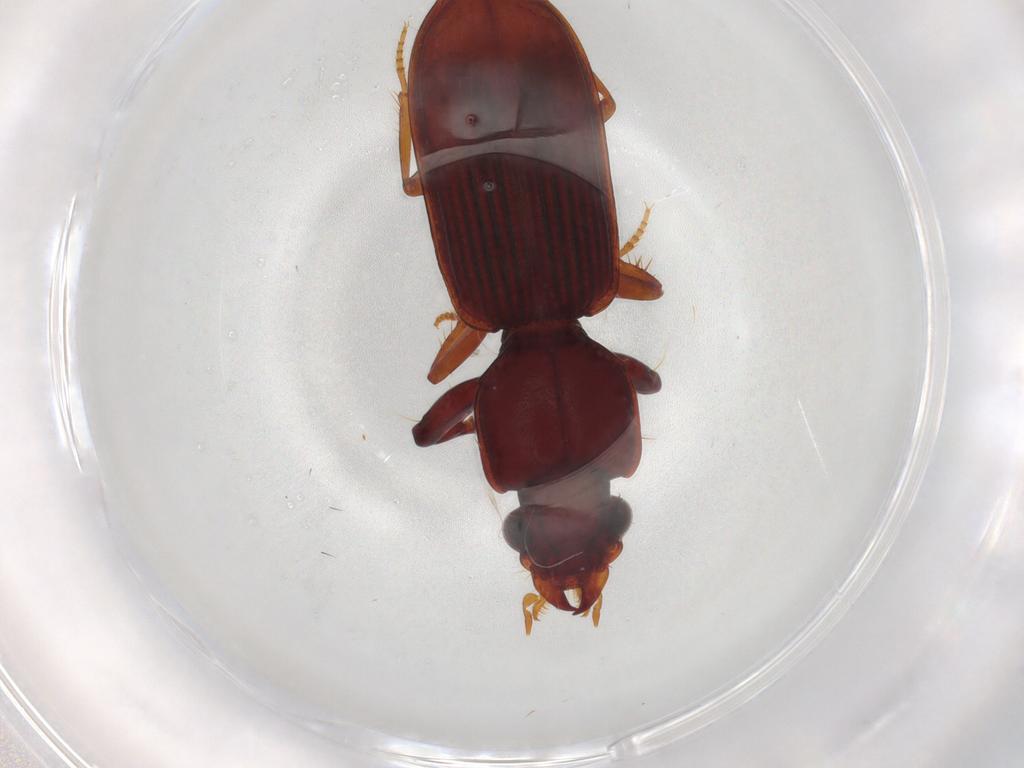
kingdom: Animalia
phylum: Arthropoda
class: Insecta
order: Coleoptera
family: Carabidae
